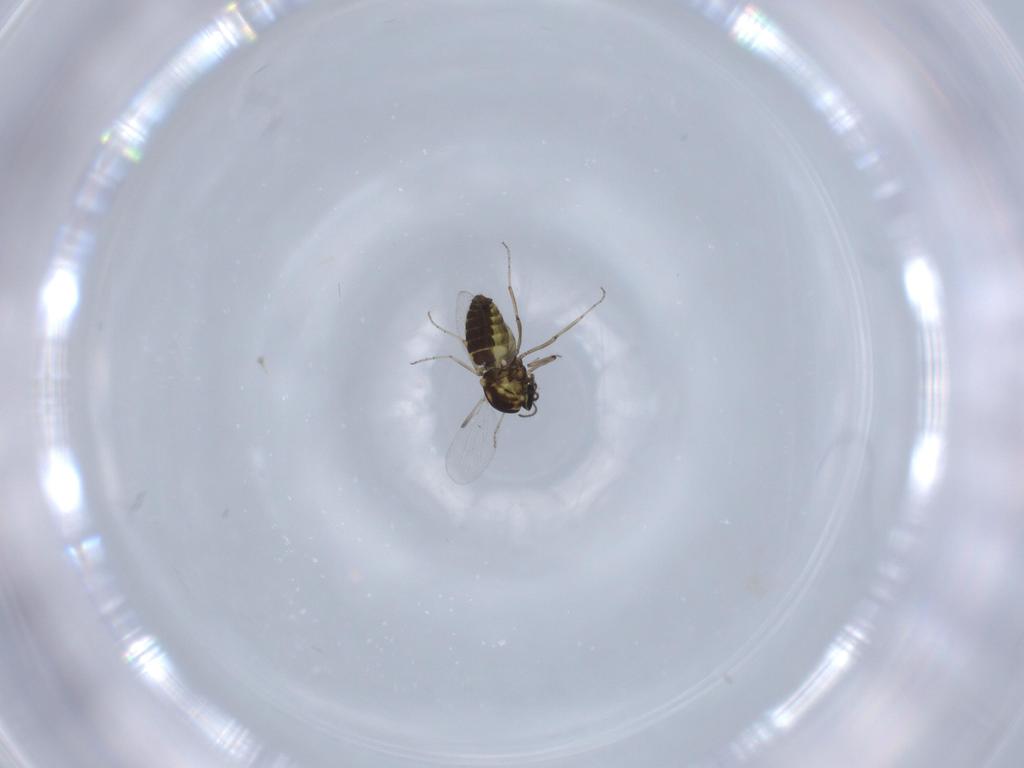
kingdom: Animalia
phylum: Arthropoda
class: Insecta
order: Diptera
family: Ceratopogonidae
